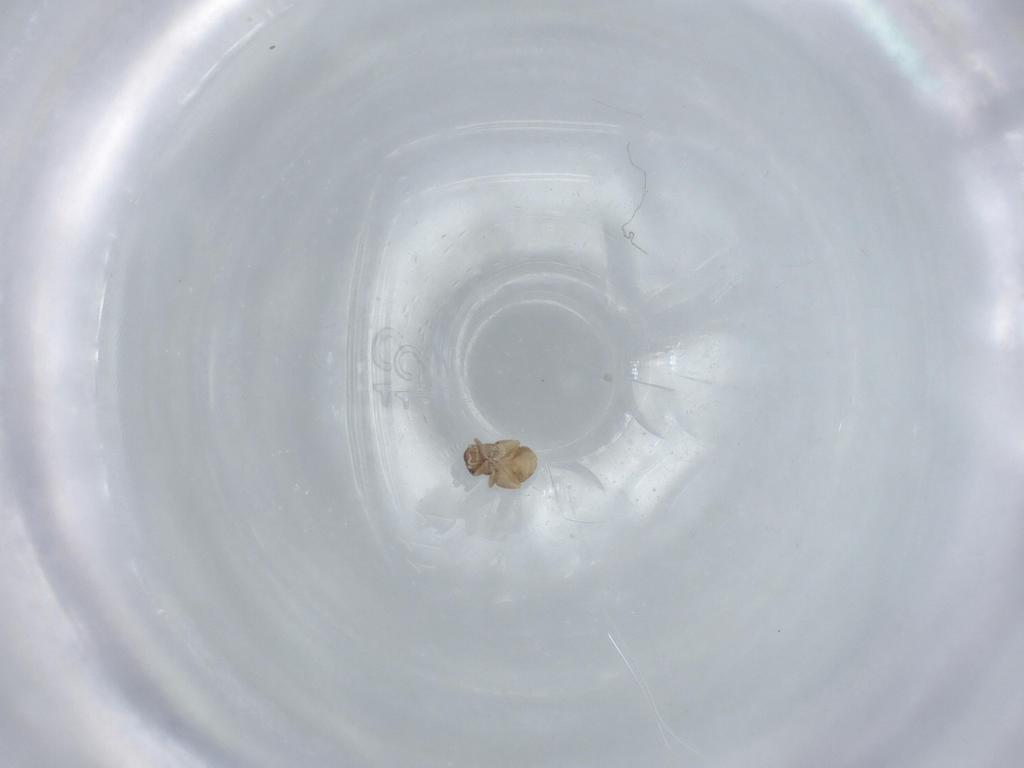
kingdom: Animalia
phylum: Arthropoda
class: Insecta
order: Psocodea
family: Liposcelididae
